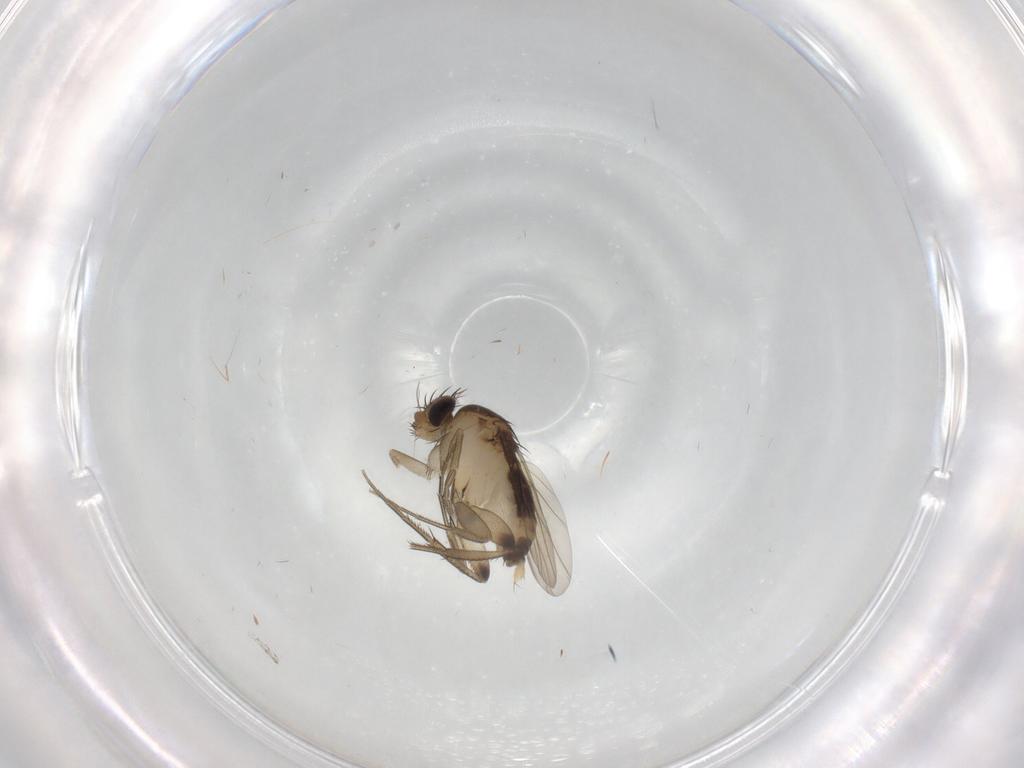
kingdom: Animalia
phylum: Arthropoda
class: Insecta
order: Diptera
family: Phoridae
